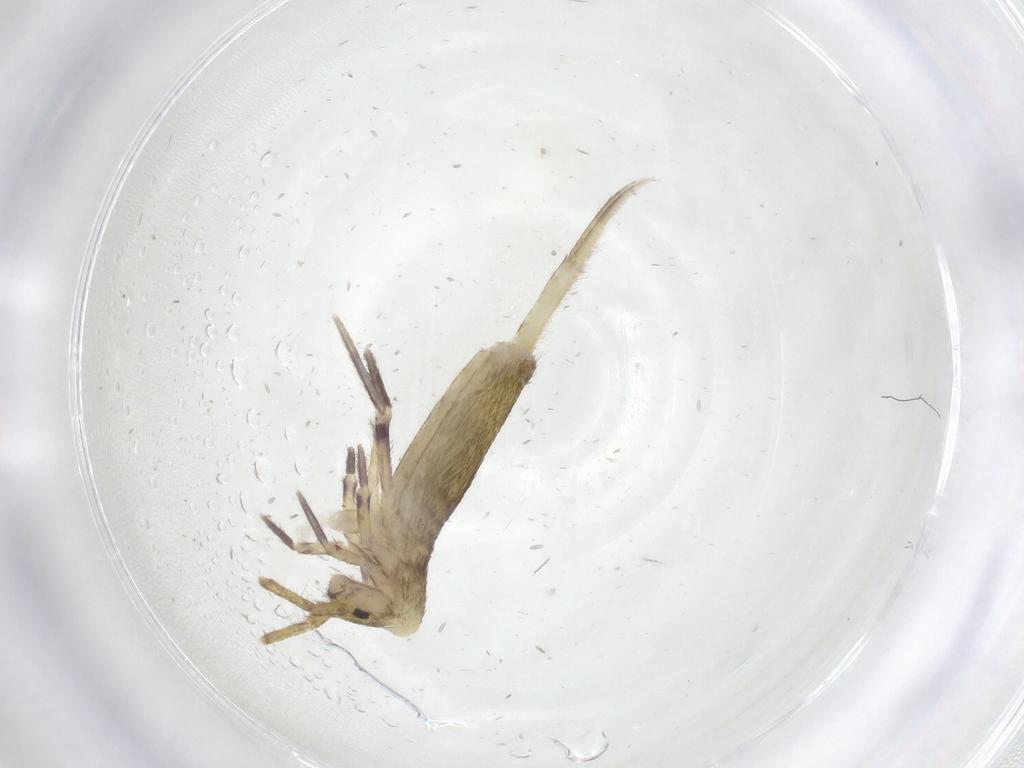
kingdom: Animalia
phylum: Arthropoda
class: Collembola
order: Entomobryomorpha
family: Entomobryidae
